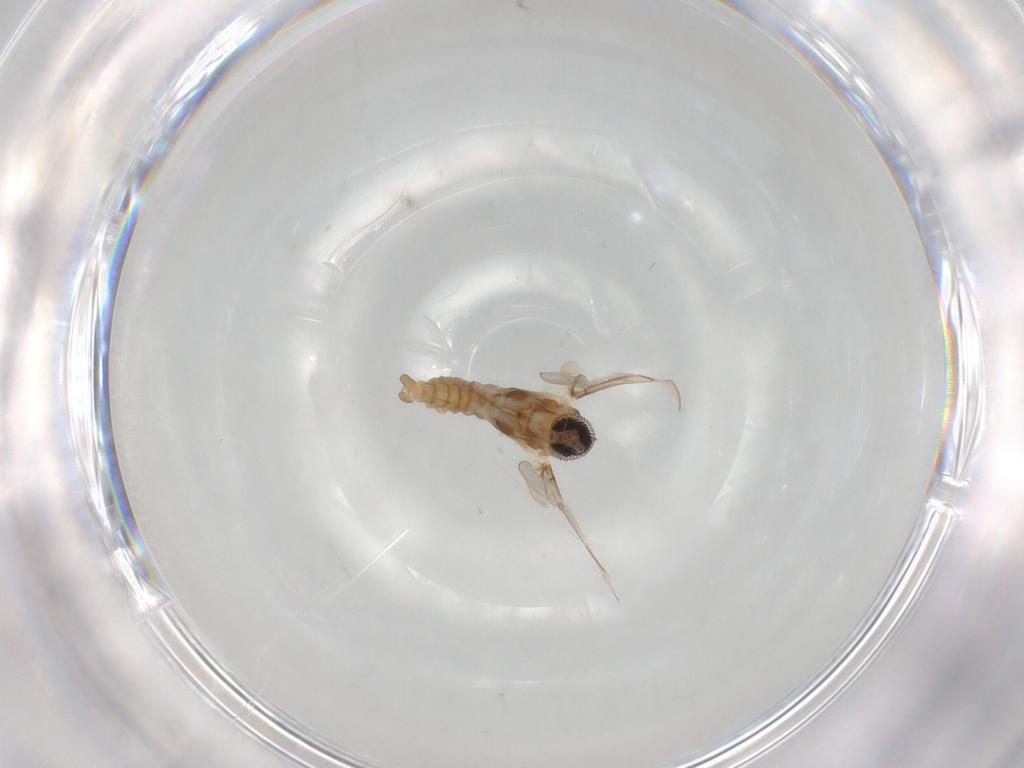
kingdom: Animalia
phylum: Arthropoda
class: Insecta
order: Diptera
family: Cecidomyiidae
